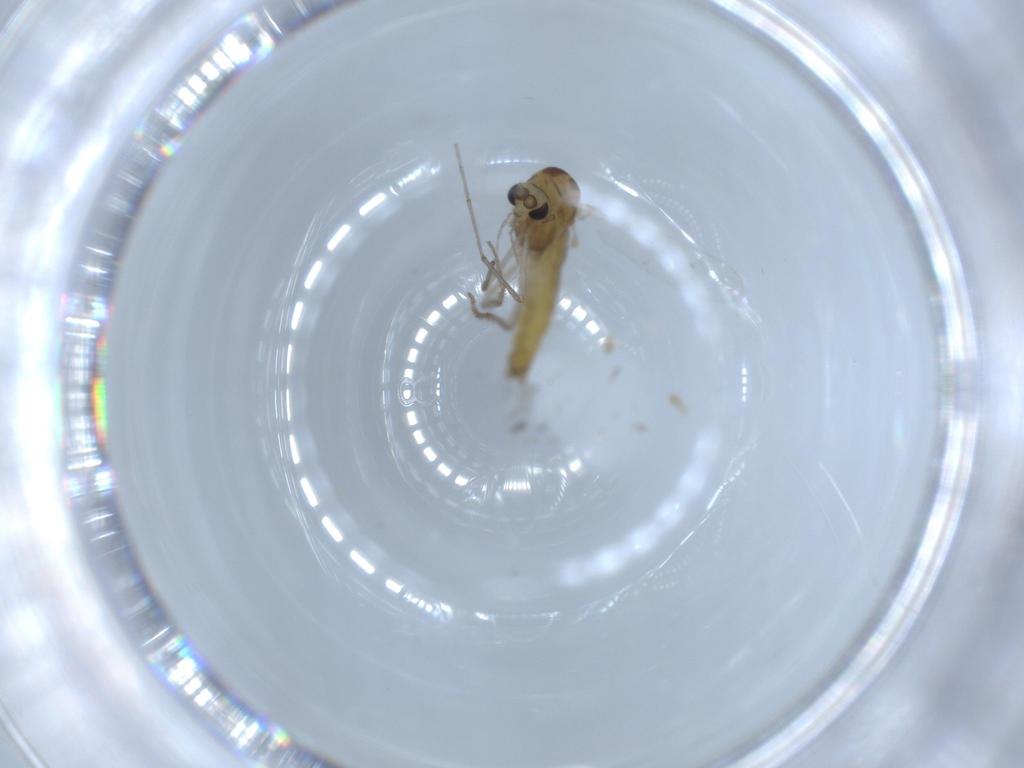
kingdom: Animalia
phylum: Arthropoda
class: Insecta
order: Diptera
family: Chironomidae
